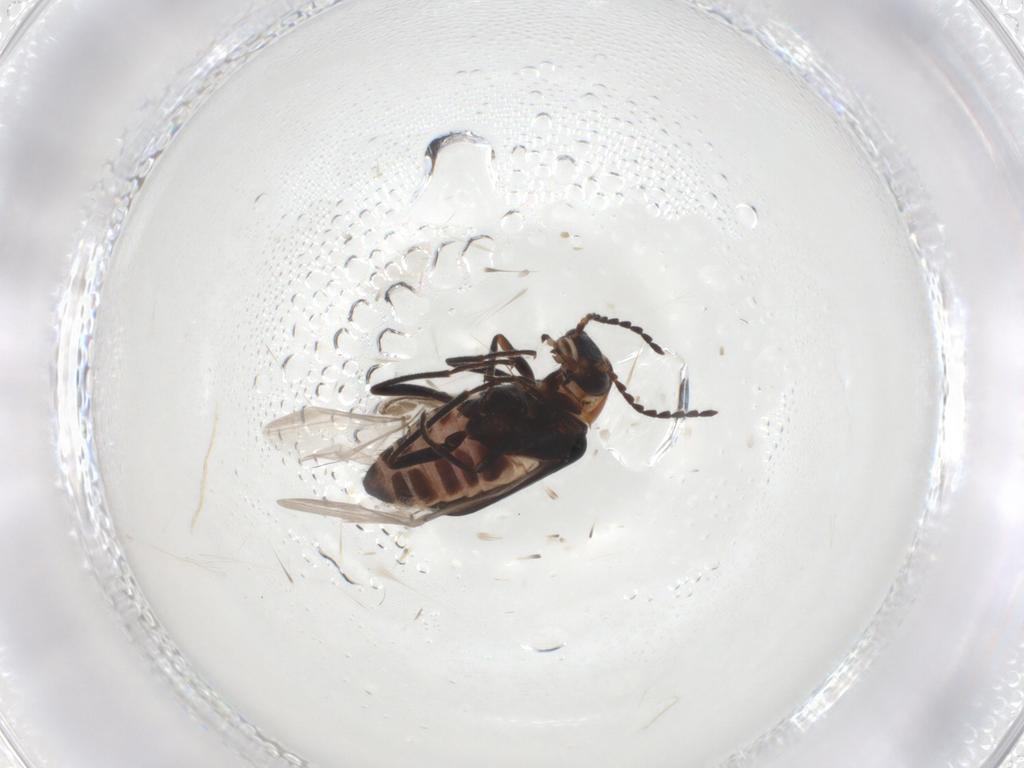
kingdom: Animalia
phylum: Arthropoda
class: Insecta
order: Coleoptera
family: Melyridae
